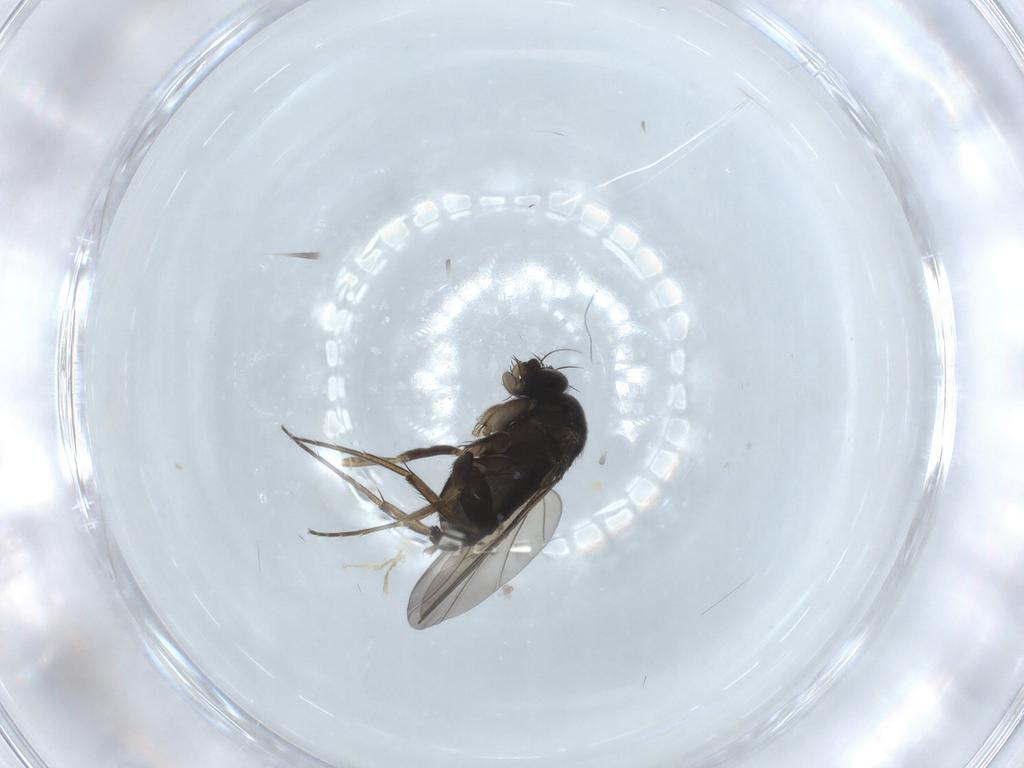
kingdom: Animalia
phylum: Arthropoda
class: Insecta
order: Diptera
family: Phoridae
